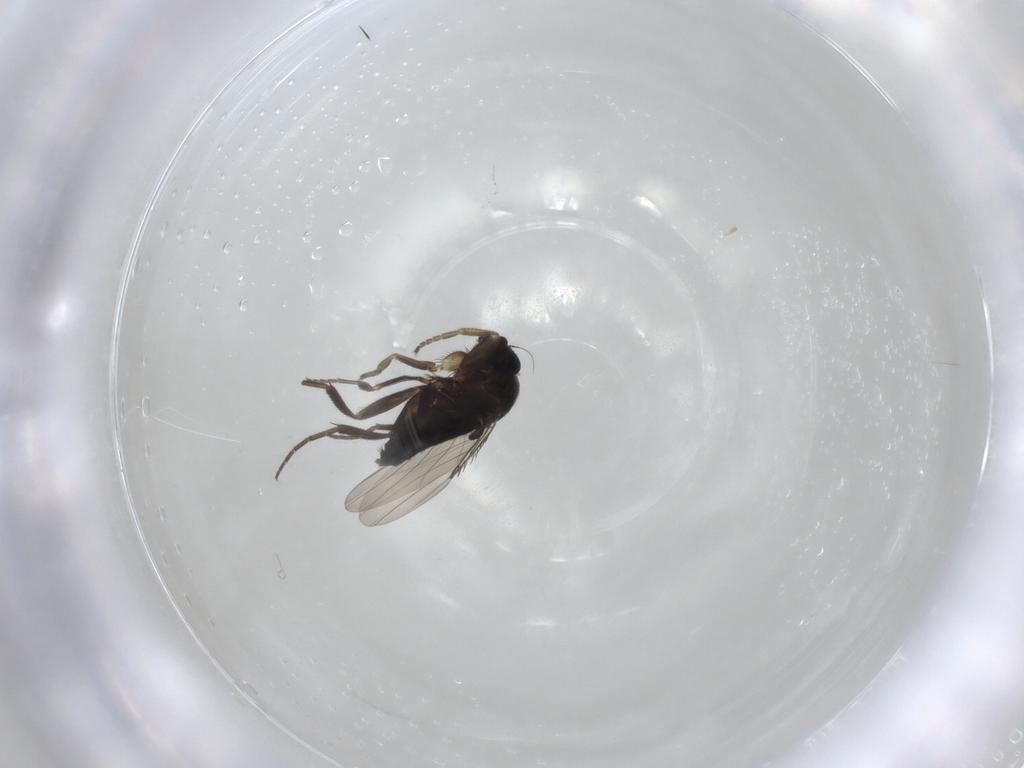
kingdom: Animalia
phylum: Arthropoda
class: Insecta
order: Diptera
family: Phoridae
